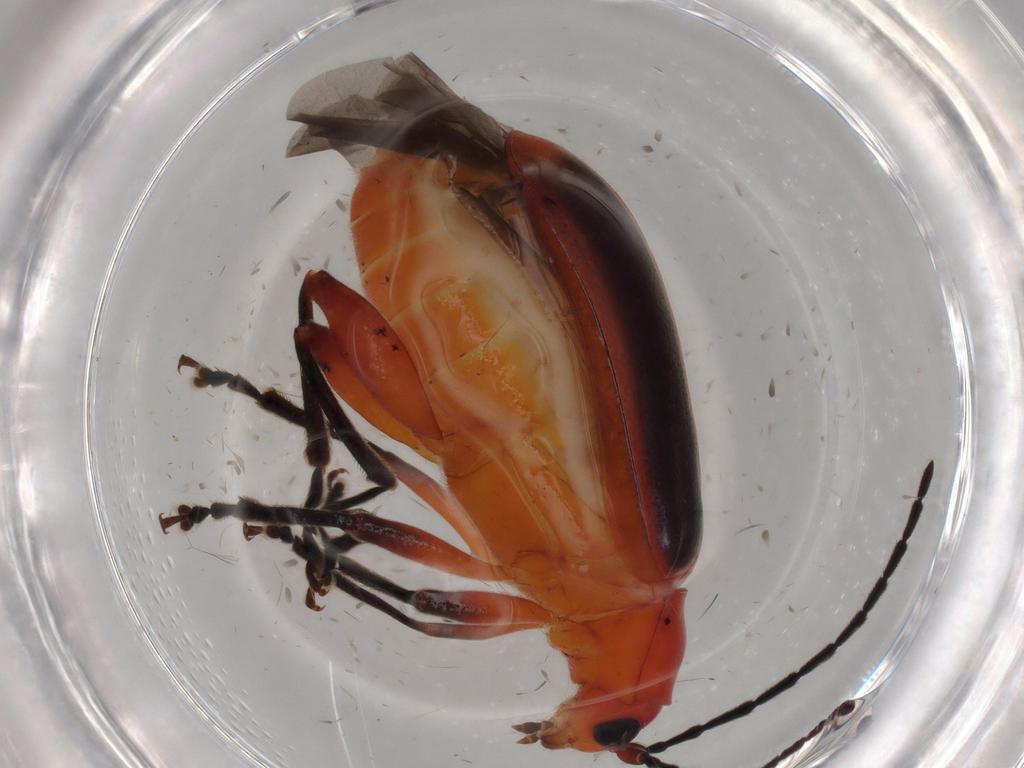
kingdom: Animalia
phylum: Arthropoda
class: Insecta
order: Coleoptera
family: Chrysomelidae
